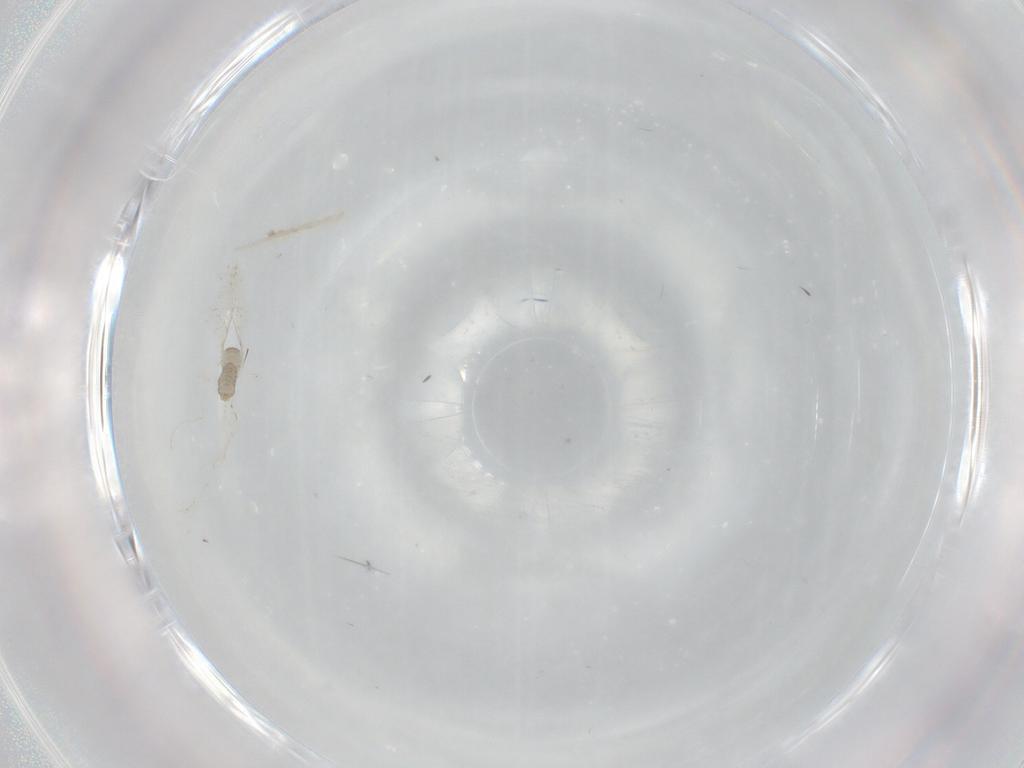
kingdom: Animalia
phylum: Arthropoda
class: Insecta
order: Diptera
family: Cecidomyiidae
